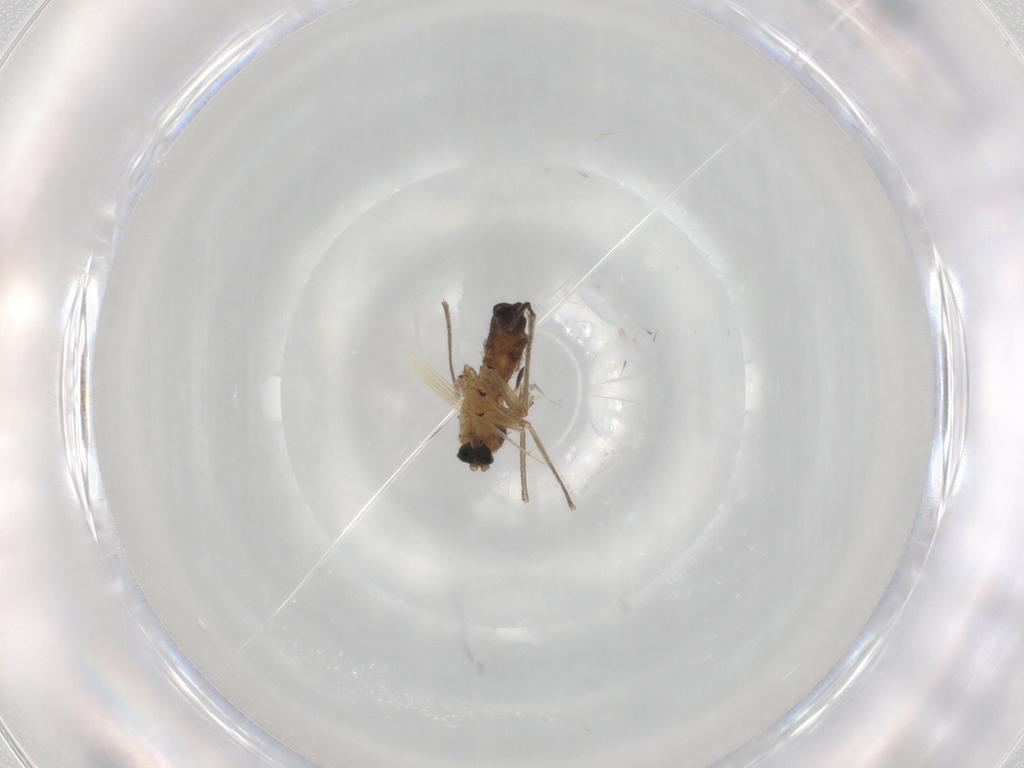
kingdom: Animalia
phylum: Arthropoda
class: Insecta
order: Diptera
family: Sciaridae
